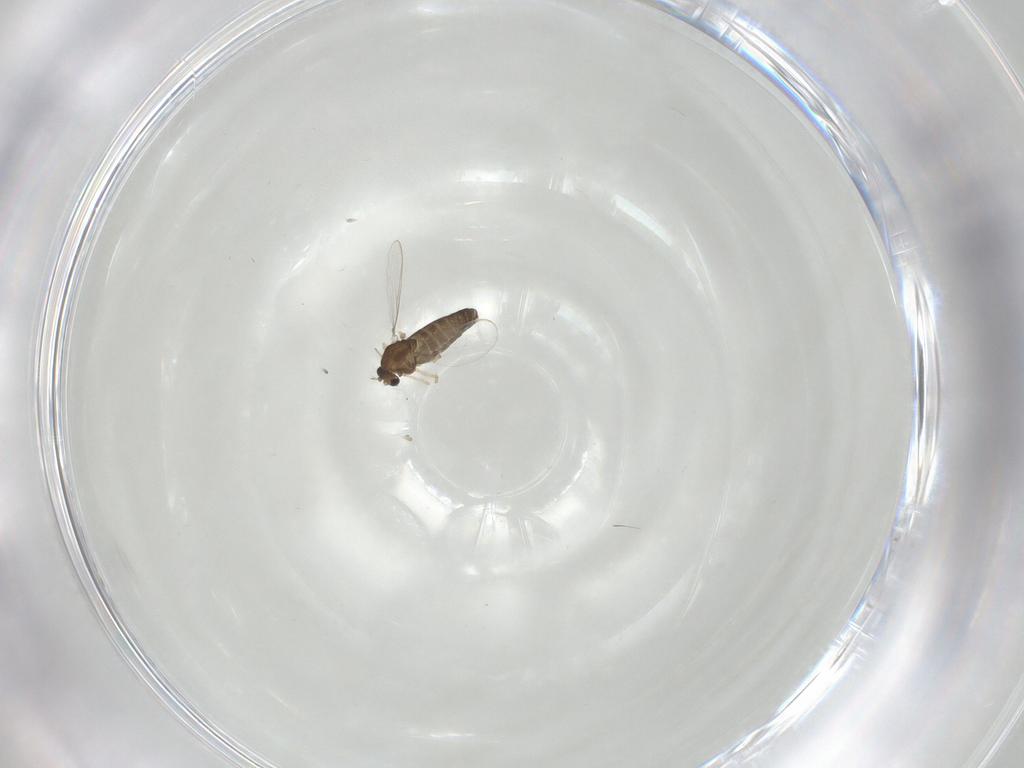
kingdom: Animalia
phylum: Arthropoda
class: Insecta
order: Diptera
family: Chironomidae
